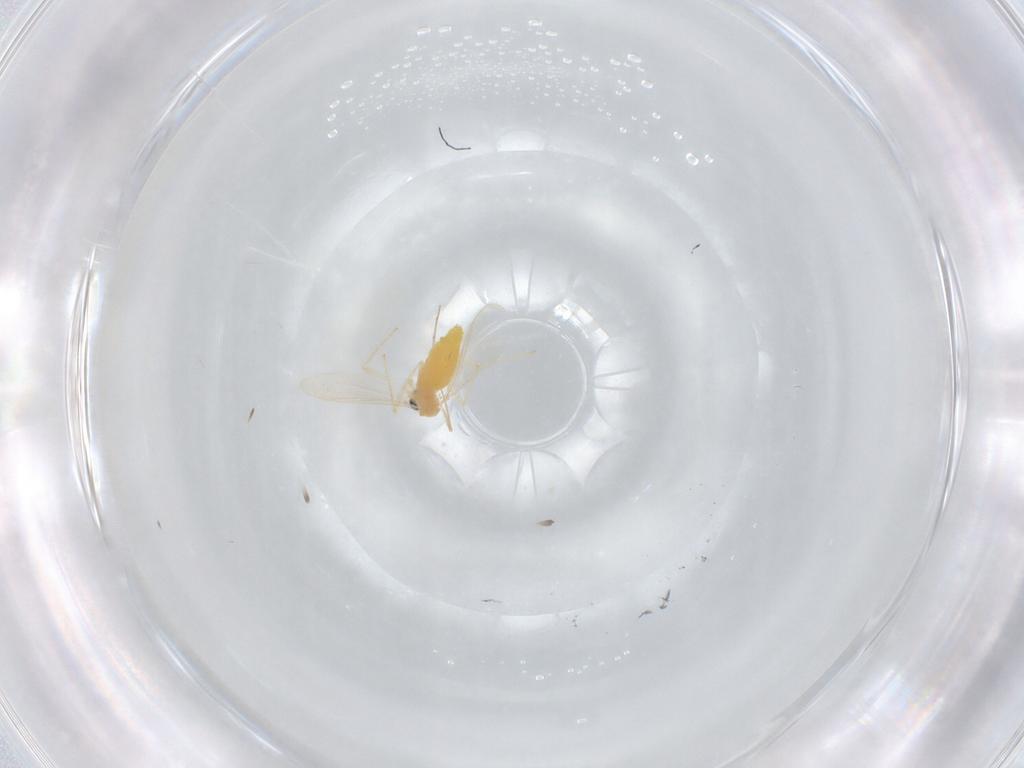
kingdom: Animalia
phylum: Arthropoda
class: Insecta
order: Diptera
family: Chironomidae
